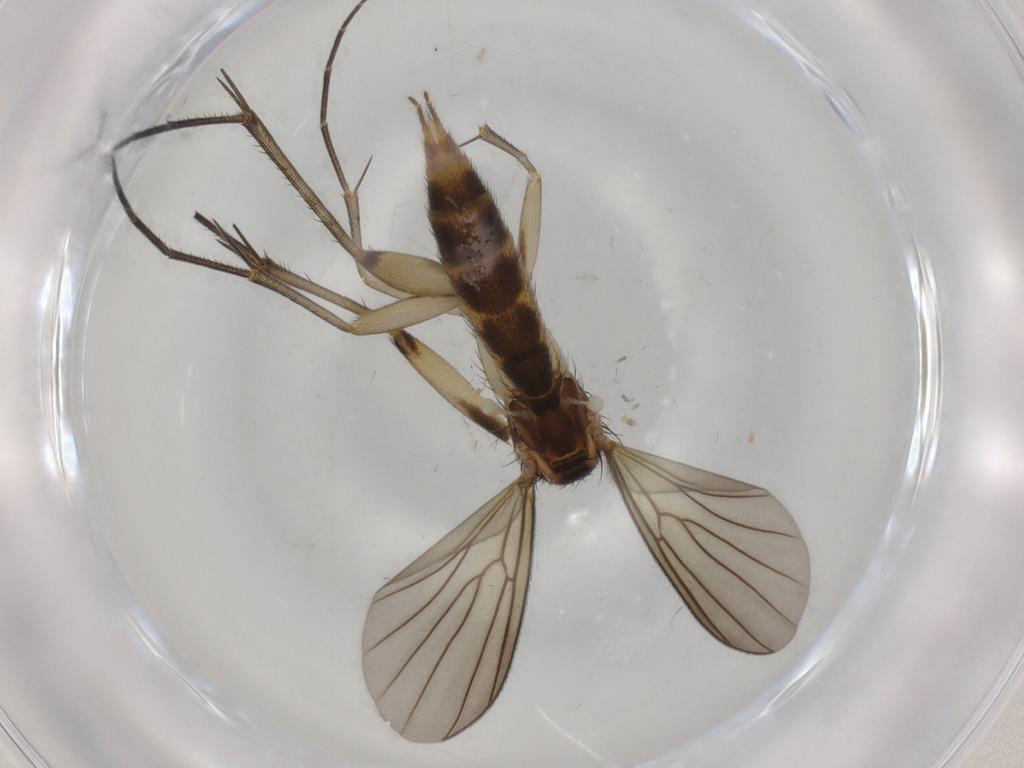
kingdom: Animalia
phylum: Arthropoda
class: Insecta
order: Diptera
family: Mycetophilidae
